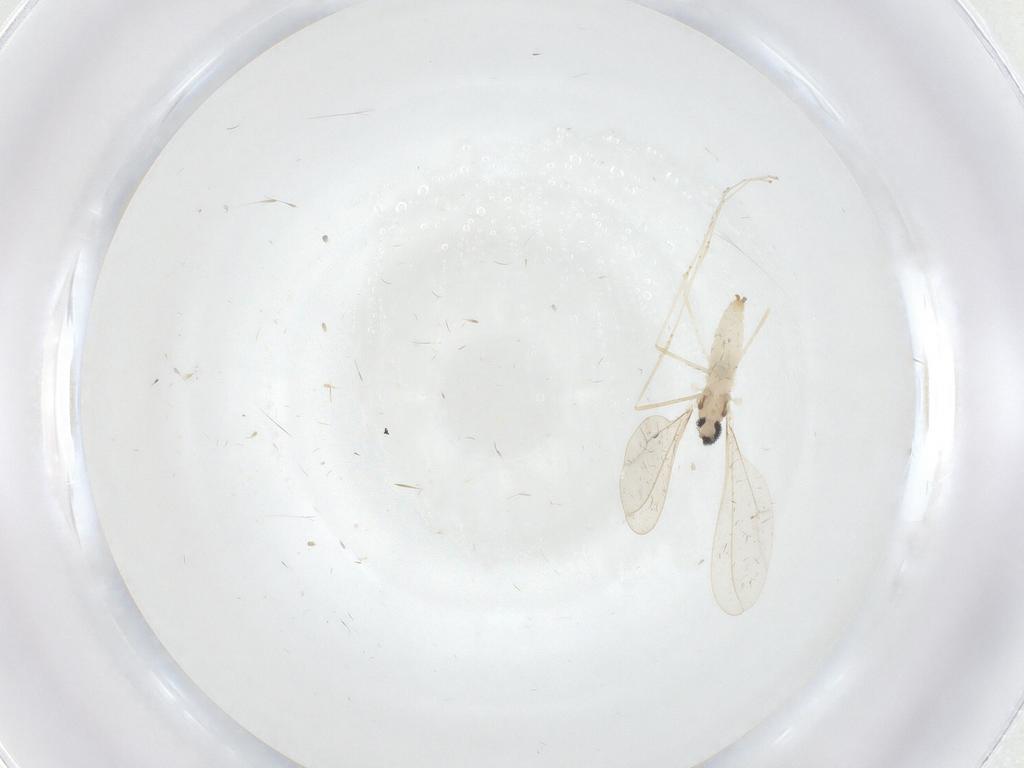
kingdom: Animalia
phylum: Arthropoda
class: Insecta
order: Diptera
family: Cecidomyiidae
